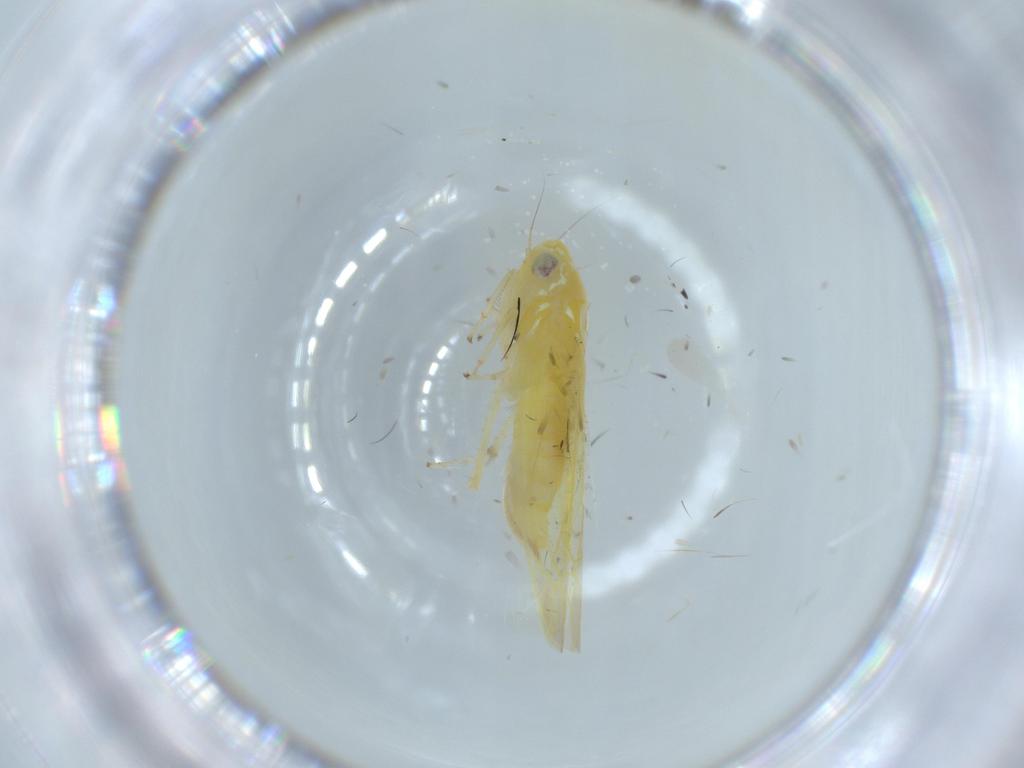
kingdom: Animalia
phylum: Arthropoda
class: Insecta
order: Hemiptera
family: Aphididae
